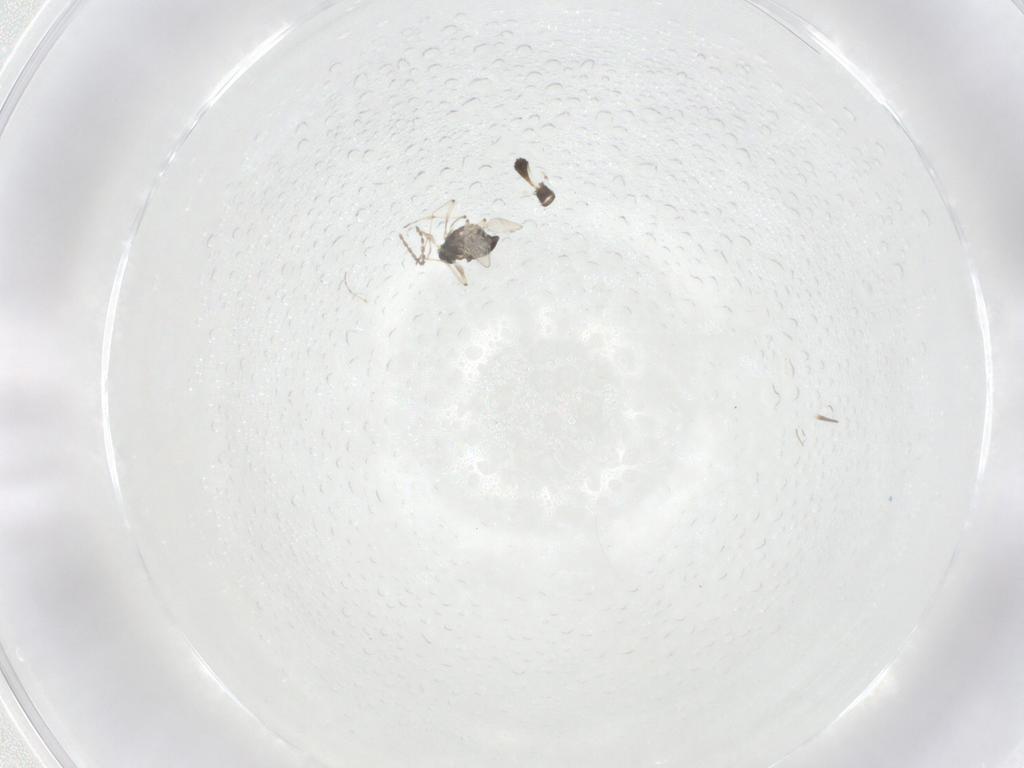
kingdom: Animalia
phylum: Arthropoda
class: Insecta
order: Diptera
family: Chironomidae
